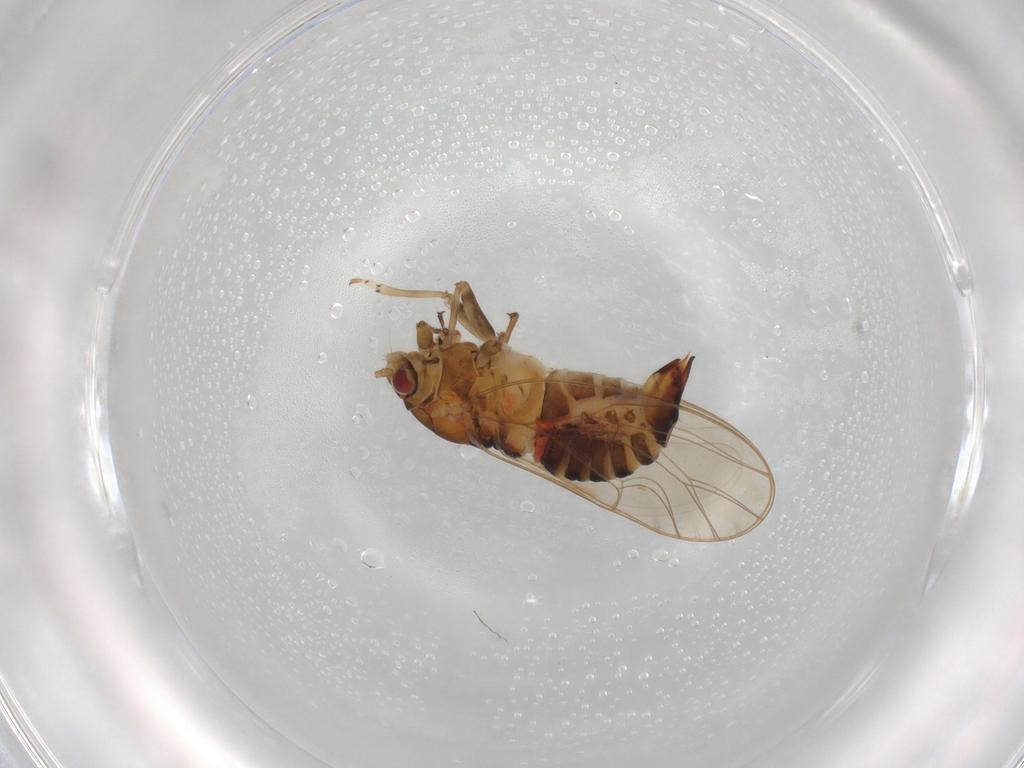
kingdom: Animalia
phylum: Arthropoda
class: Insecta
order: Hemiptera
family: Psyllidae
